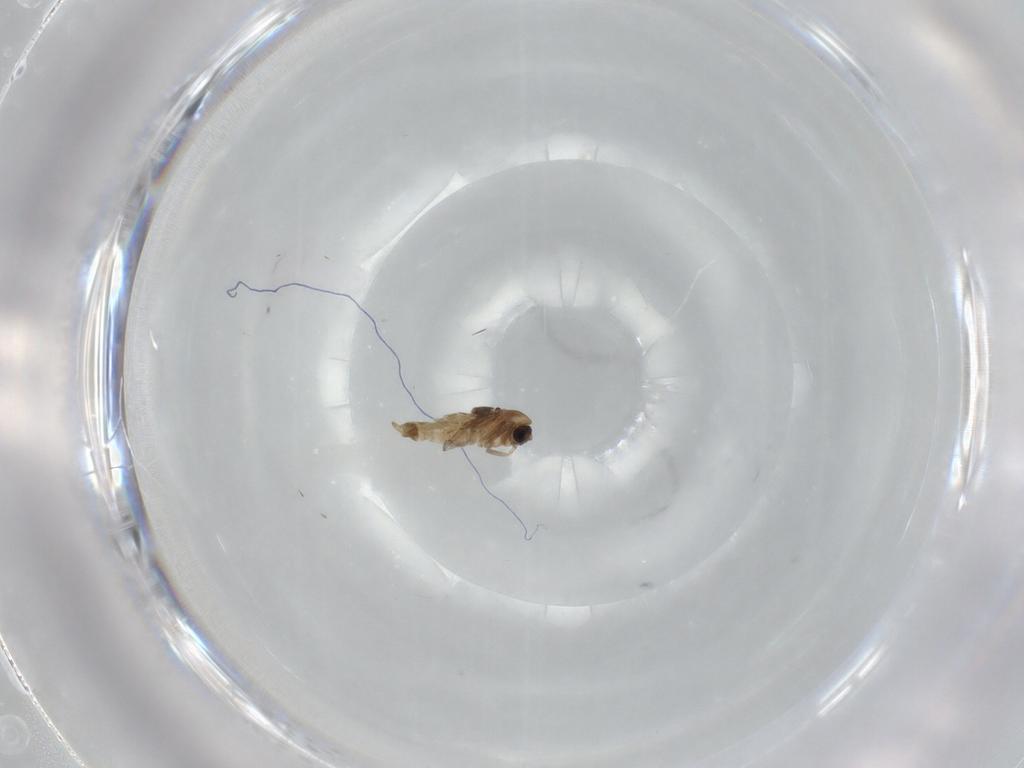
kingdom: Animalia
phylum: Arthropoda
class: Insecta
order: Diptera
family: Chironomidae
